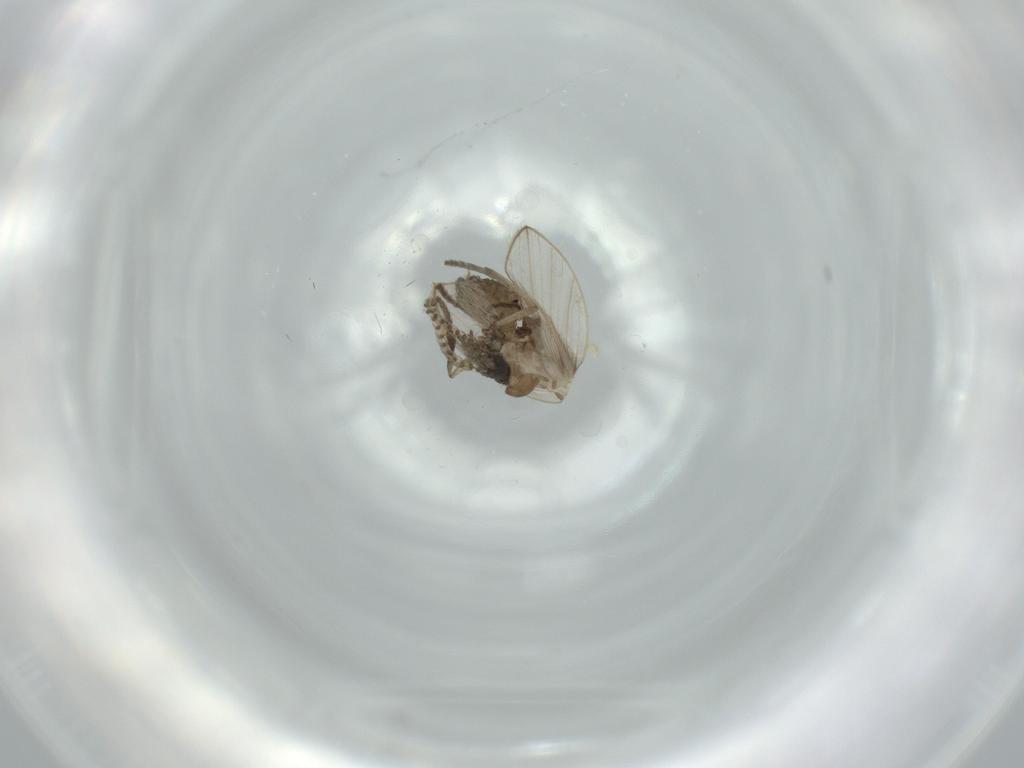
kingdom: Animalia
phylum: Arthropoda
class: Insecta
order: Diptera
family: Psychodidae
